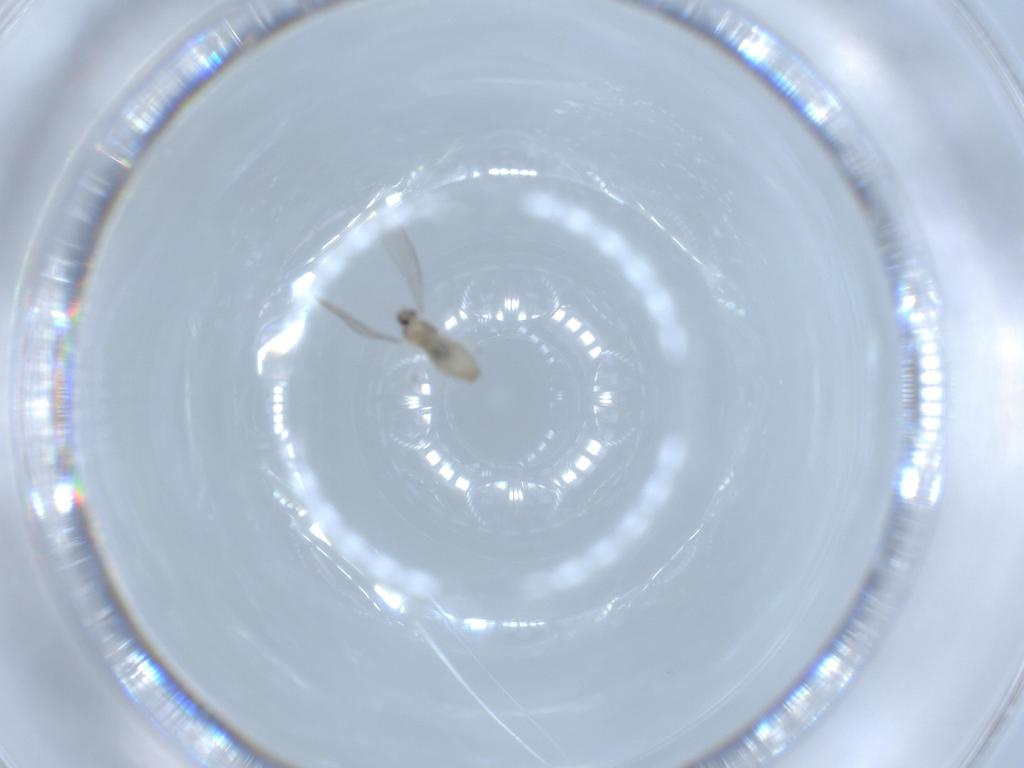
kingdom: Animalia
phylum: Arthropoda
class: Insecta
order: Diptera
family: Cecidomyiidae
